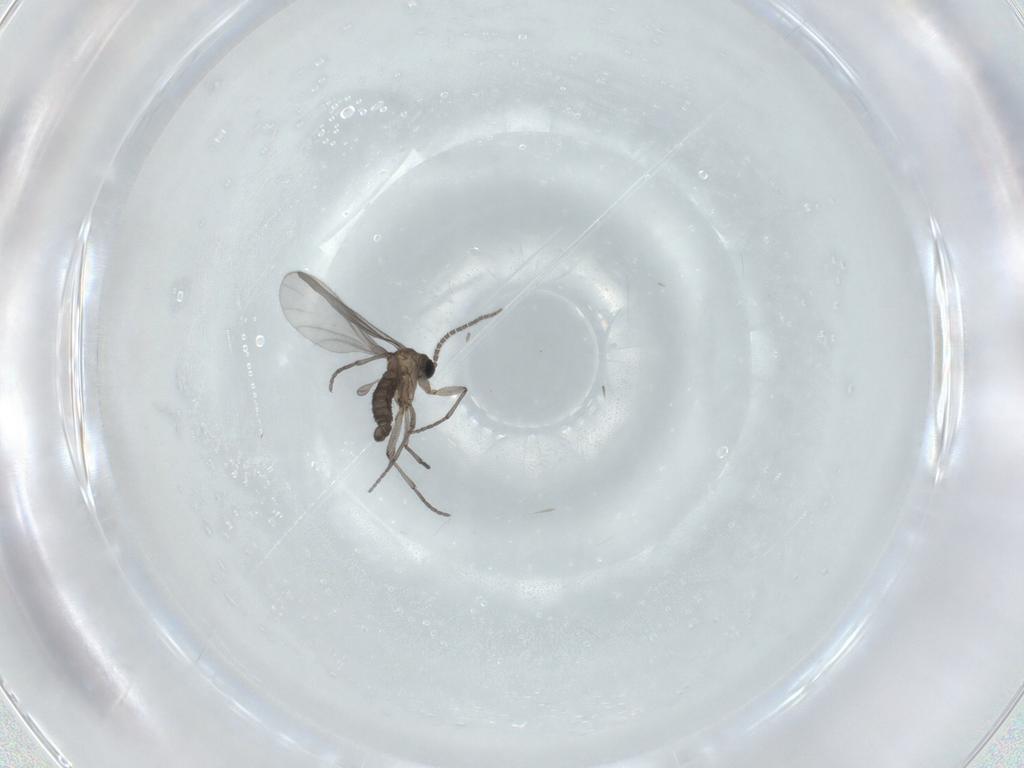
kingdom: Animalia
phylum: Arthropoda
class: Insecta
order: Diptera
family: Sciaridae
